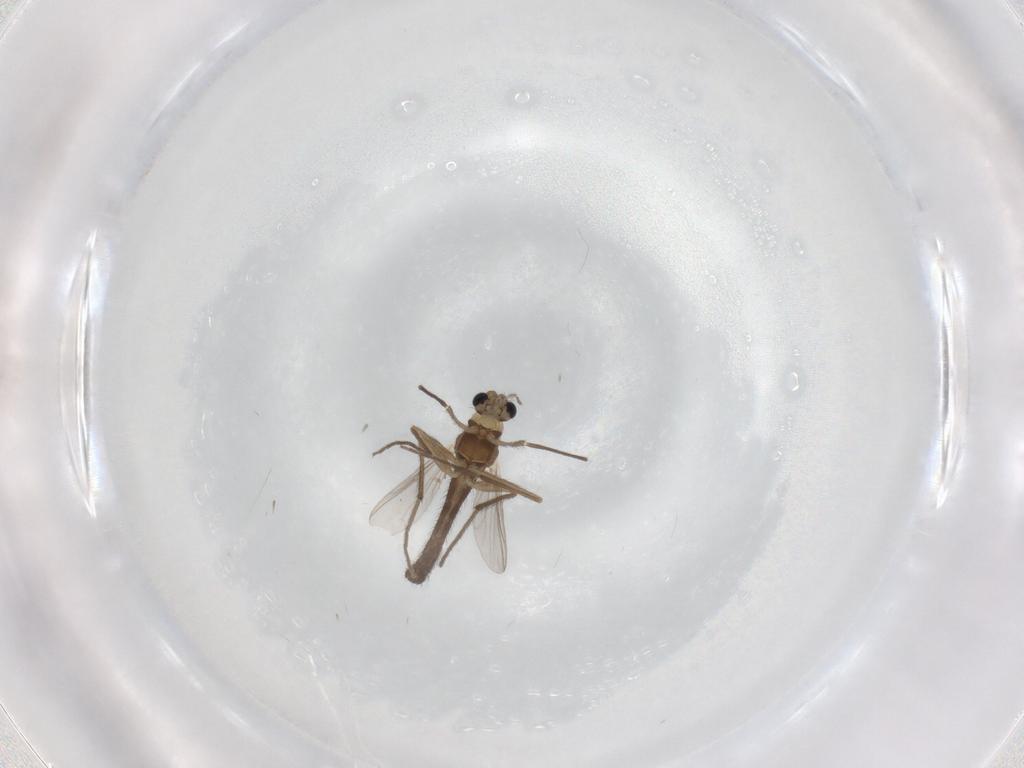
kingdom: Animalia
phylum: Arthropoda
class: Insecta
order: Diptera
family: Chironomidae
